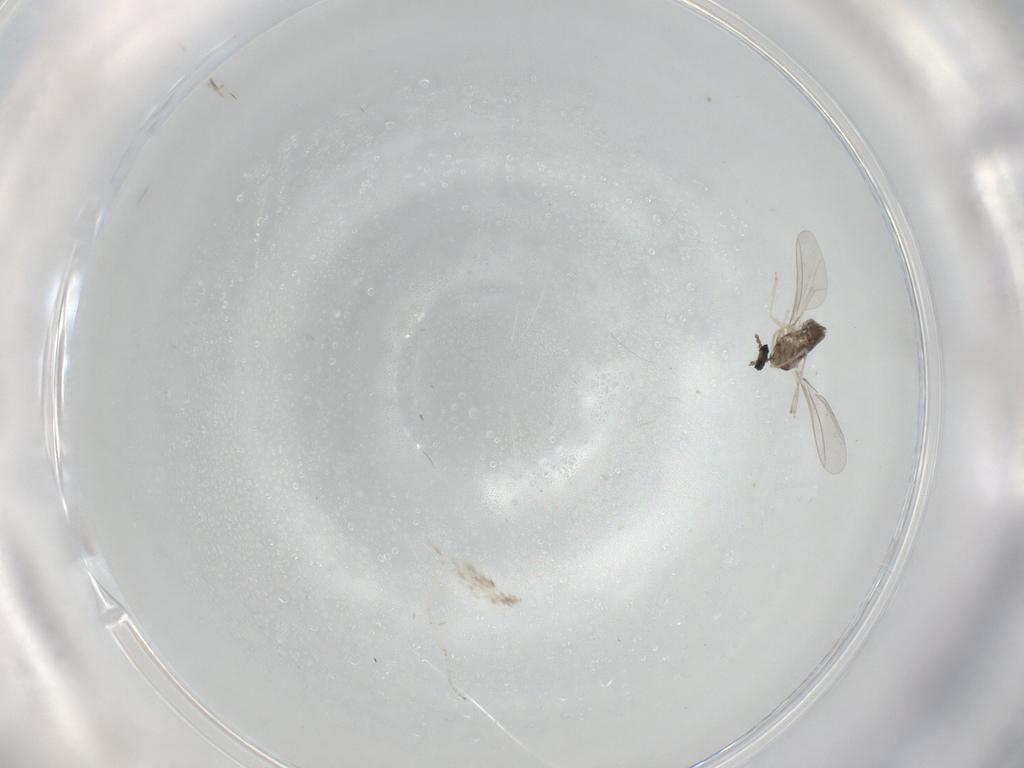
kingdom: Animalia
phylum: Arthropoda
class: Insecta
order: Diptera
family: Cecidomyiidae
